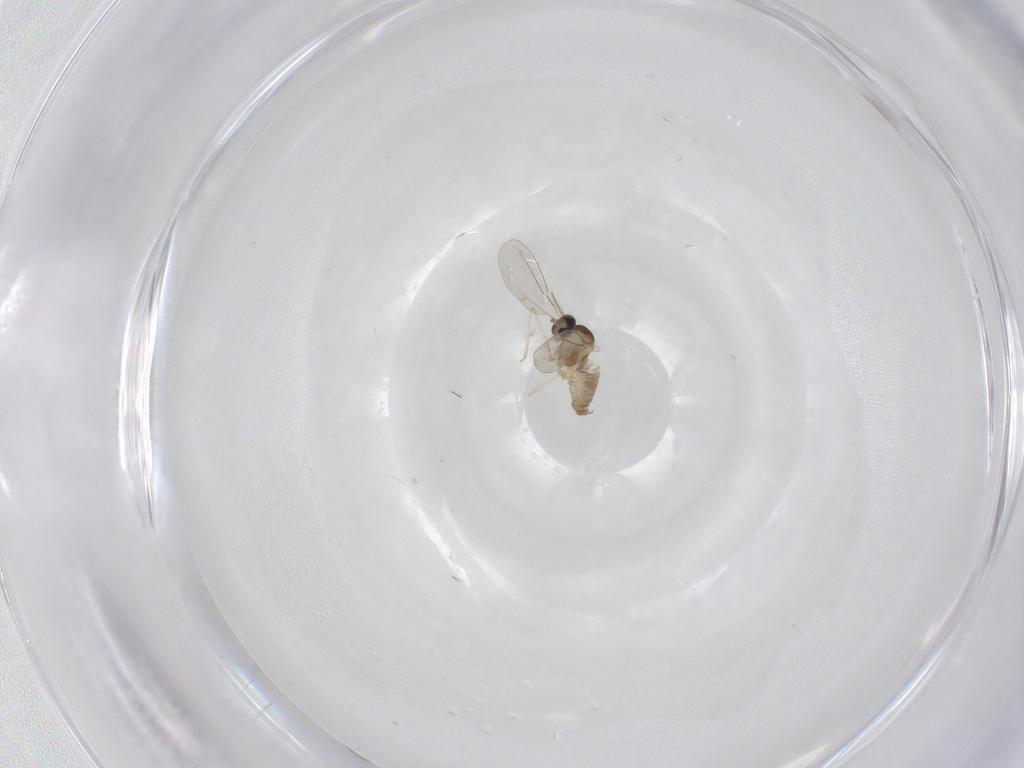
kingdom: Animalia
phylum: Arthropoda
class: Insecta
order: Diptera
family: Cecidomyiidae
